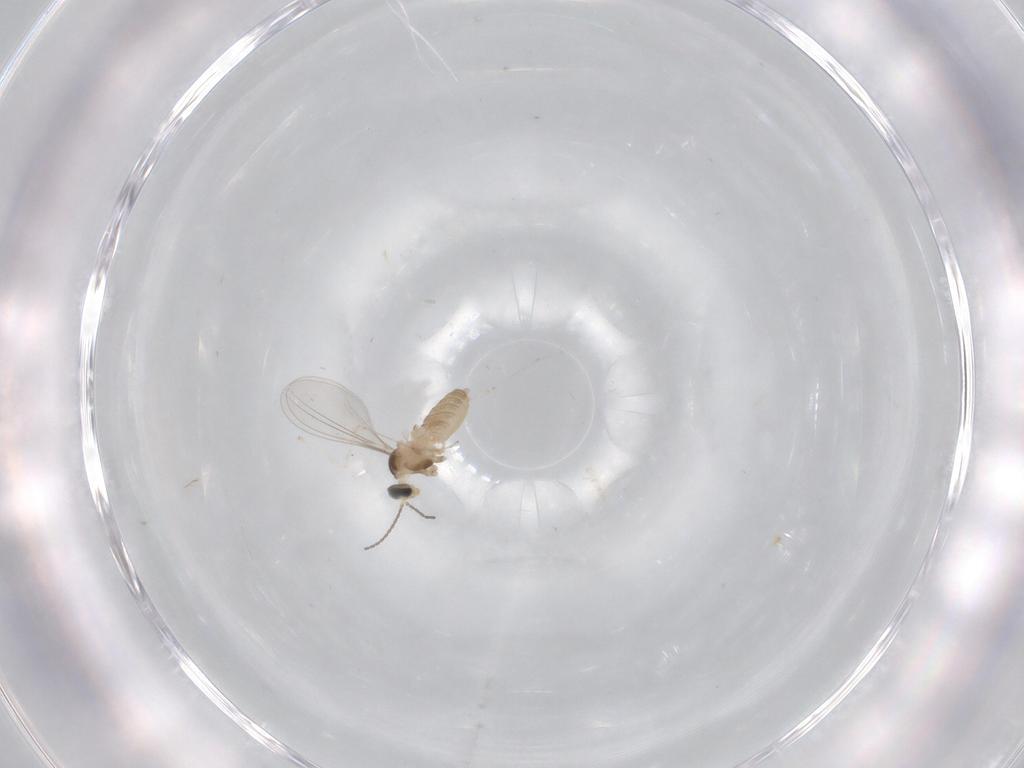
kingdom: Animalia
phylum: Arthropoda
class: Insecta
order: Diptera
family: Cecidomyiidae
